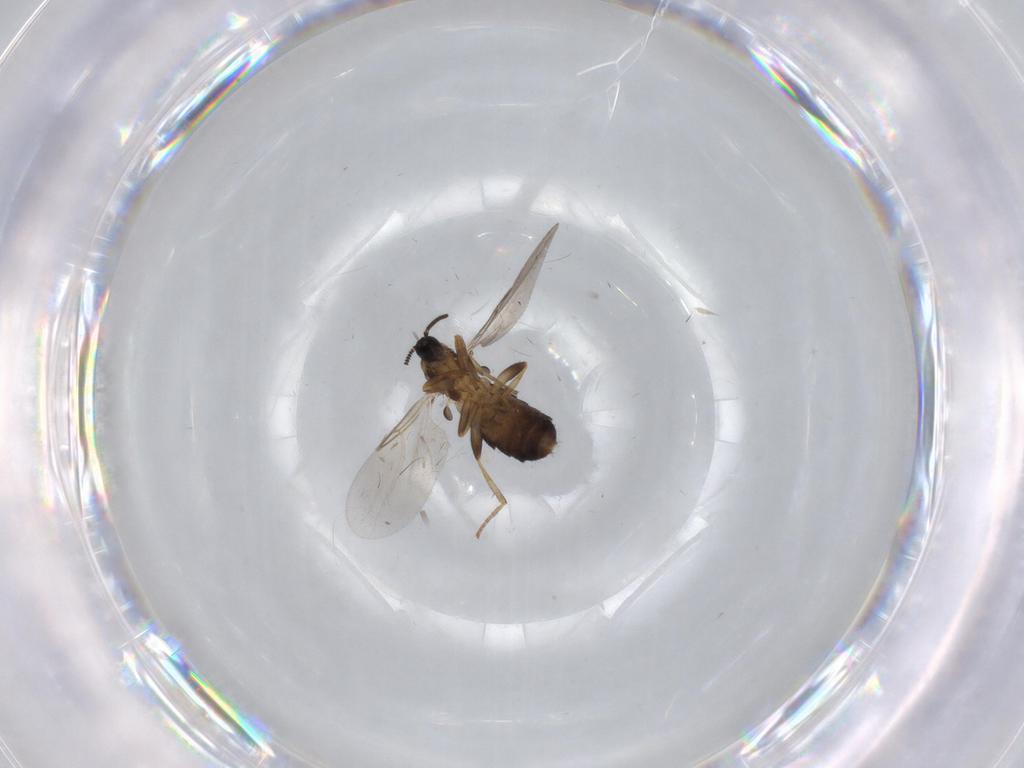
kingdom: Animalia
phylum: Arthropoda
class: Insecta
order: Diptera
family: Scatopsidae
